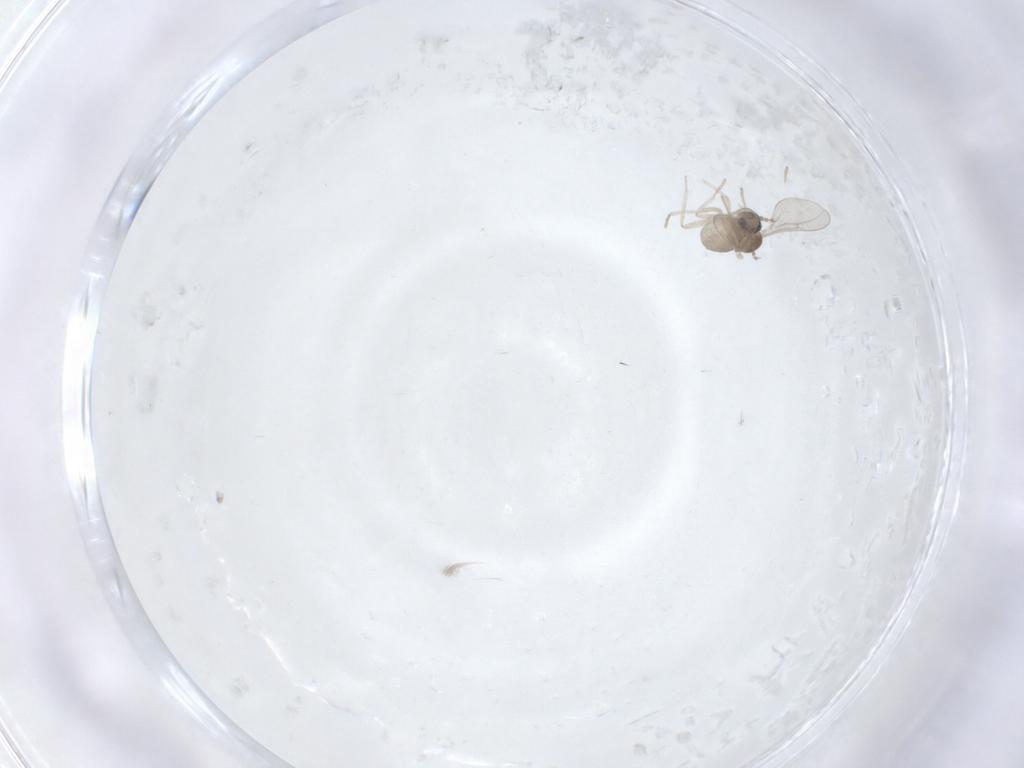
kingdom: Animalia
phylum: Arthropoda
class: Insecta
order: Diptera
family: Cecidomyiidae
